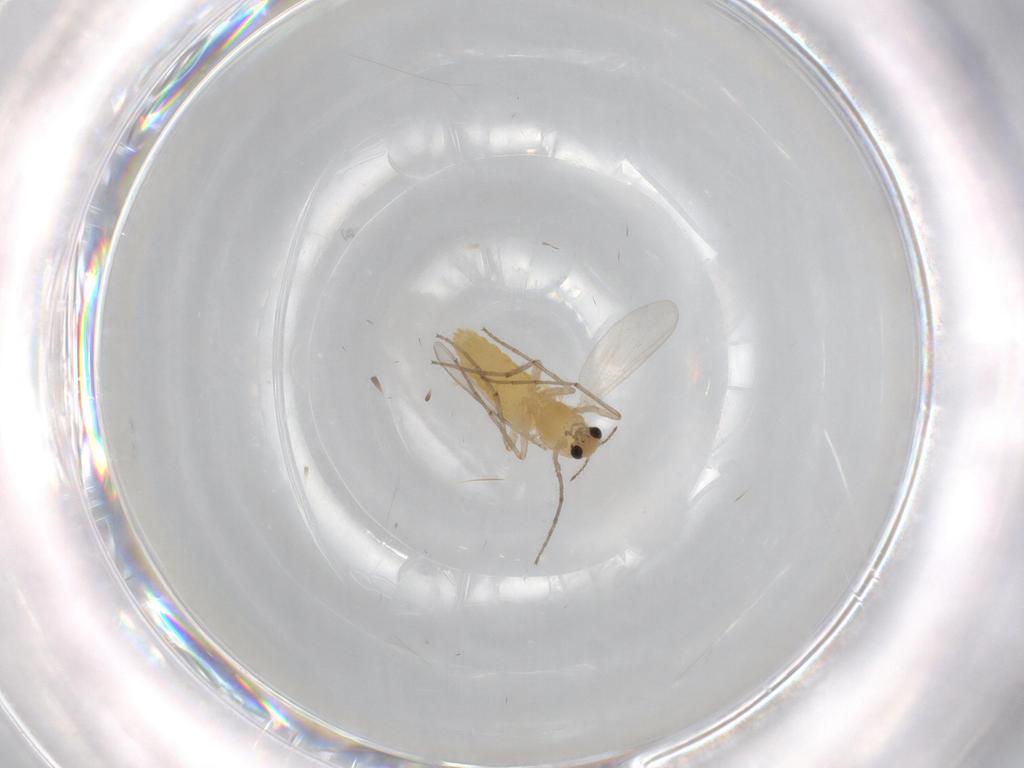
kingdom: Animalia
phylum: Arthropoda
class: Insecta
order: Diptera
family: Chironomidae
